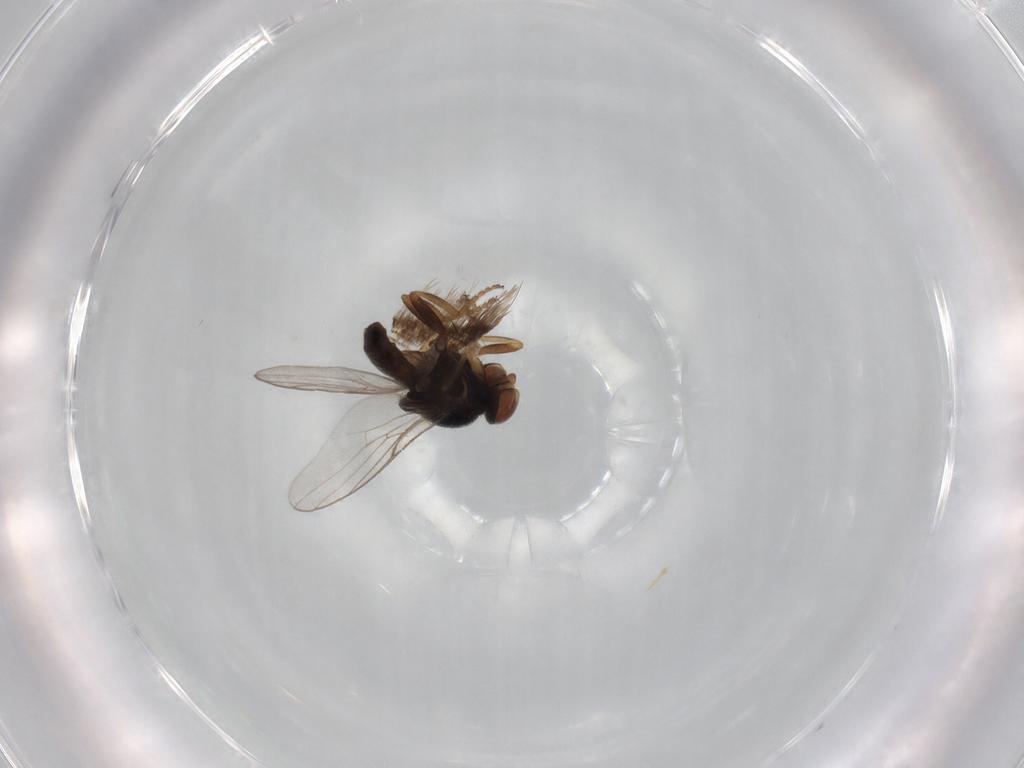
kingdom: Animalia
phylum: Arthropoda
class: Insecta
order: Diptera
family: Chloropidae
